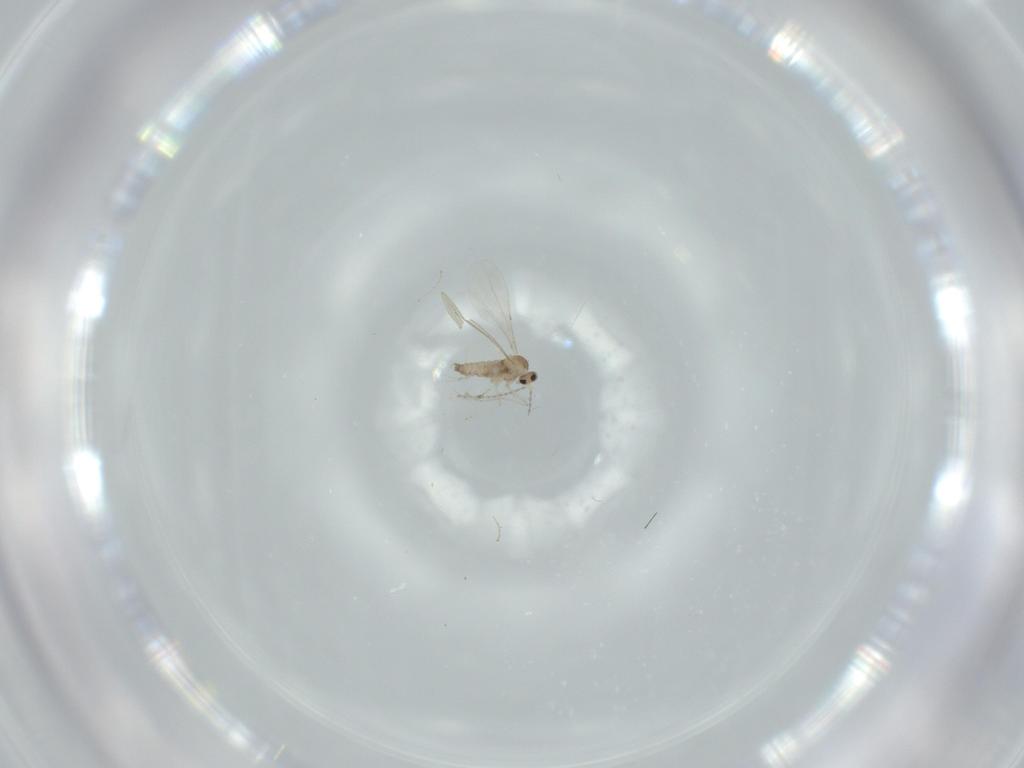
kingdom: Animalia
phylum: Arthropoda
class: Insecta
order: Diptera
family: Cecidomyiidae
